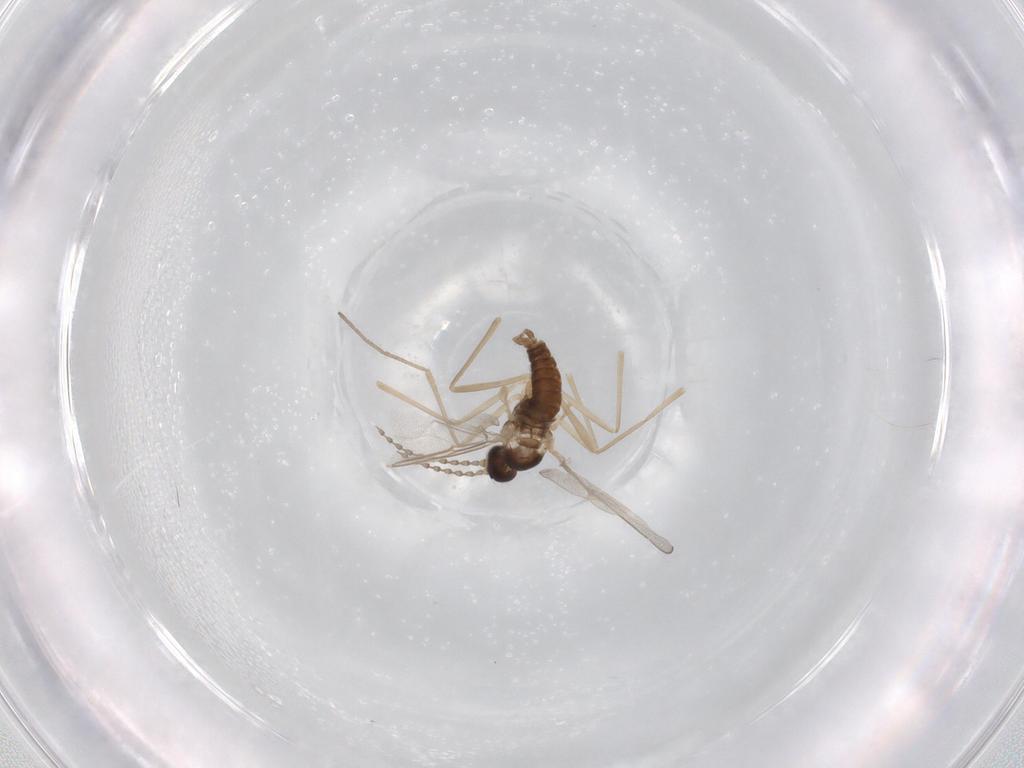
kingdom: Animalia
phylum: Arthropoda
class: Insecta
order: Diptera
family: Cecidomyiidae
